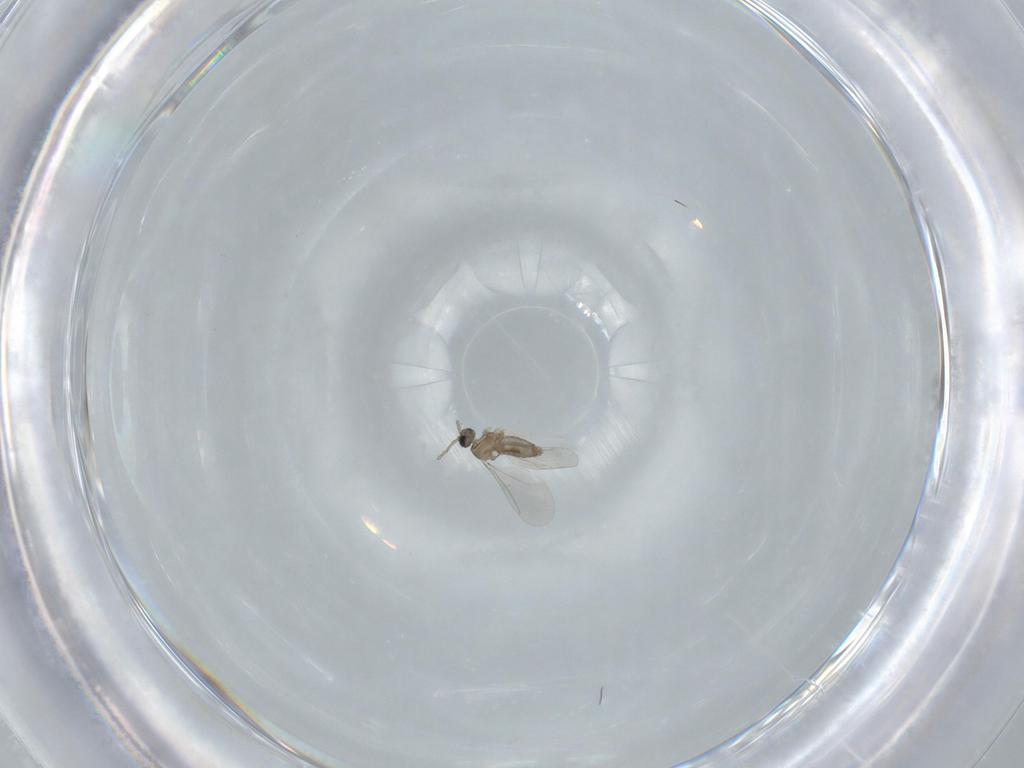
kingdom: Animalia
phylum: Arthropoda
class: Insecta
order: Diptera
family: Cecidomyiidae
